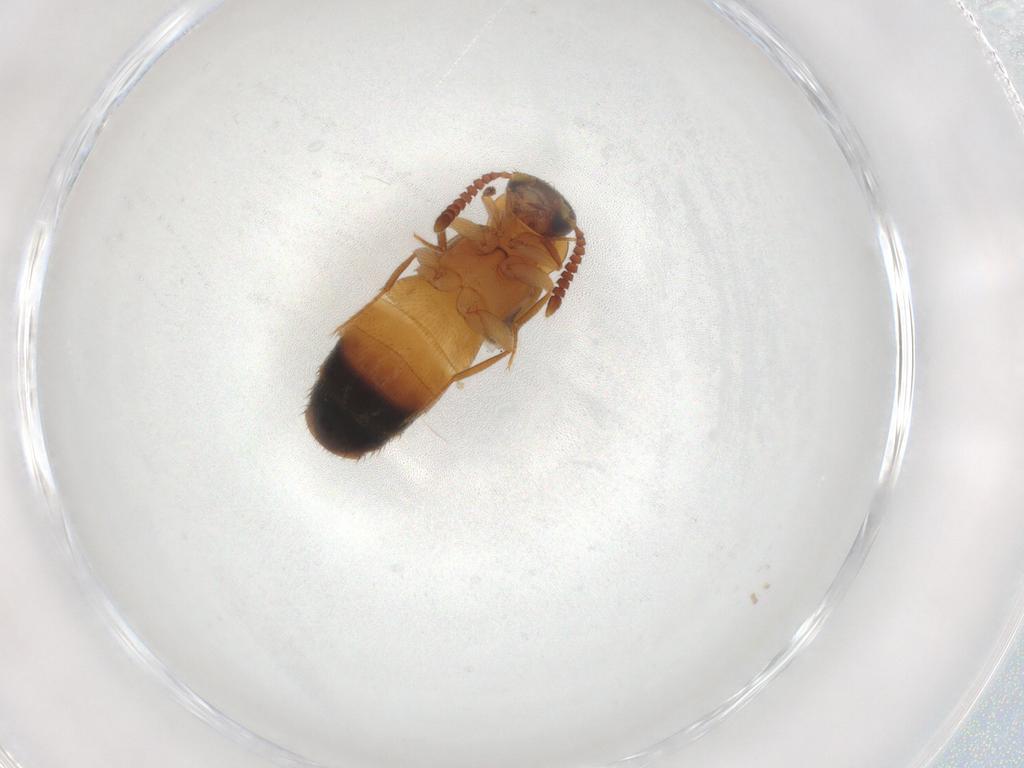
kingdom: Animalia
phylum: Arthropoda
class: Insecta
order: Coleoptera
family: Staphylinidae
